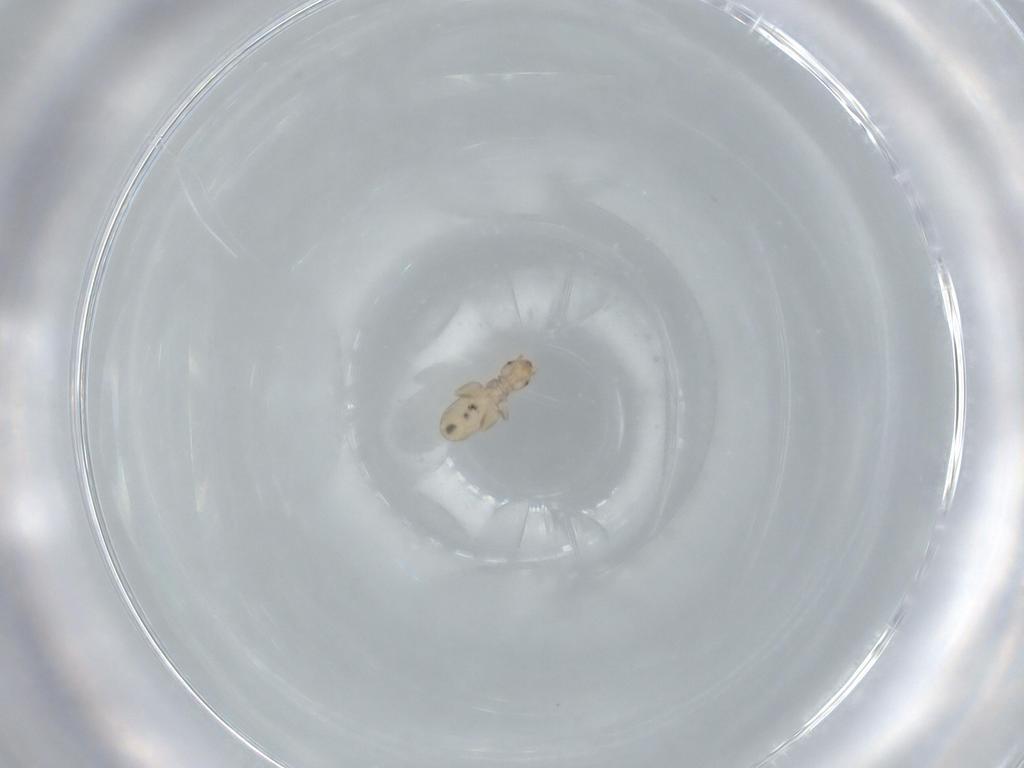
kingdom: Animalia
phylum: Arthropoda
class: Insecta
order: Psocodea
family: Liposcelididae
